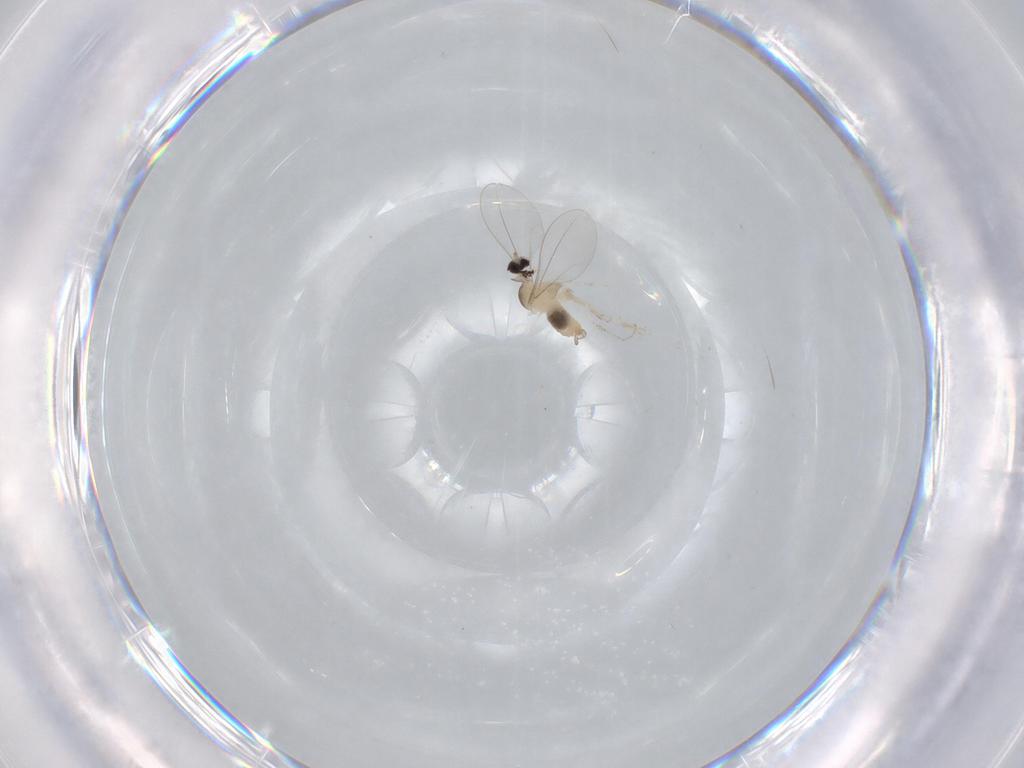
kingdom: Animalia
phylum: Arthropoda
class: Insecta
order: Diptera
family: Cecidomyiidae
